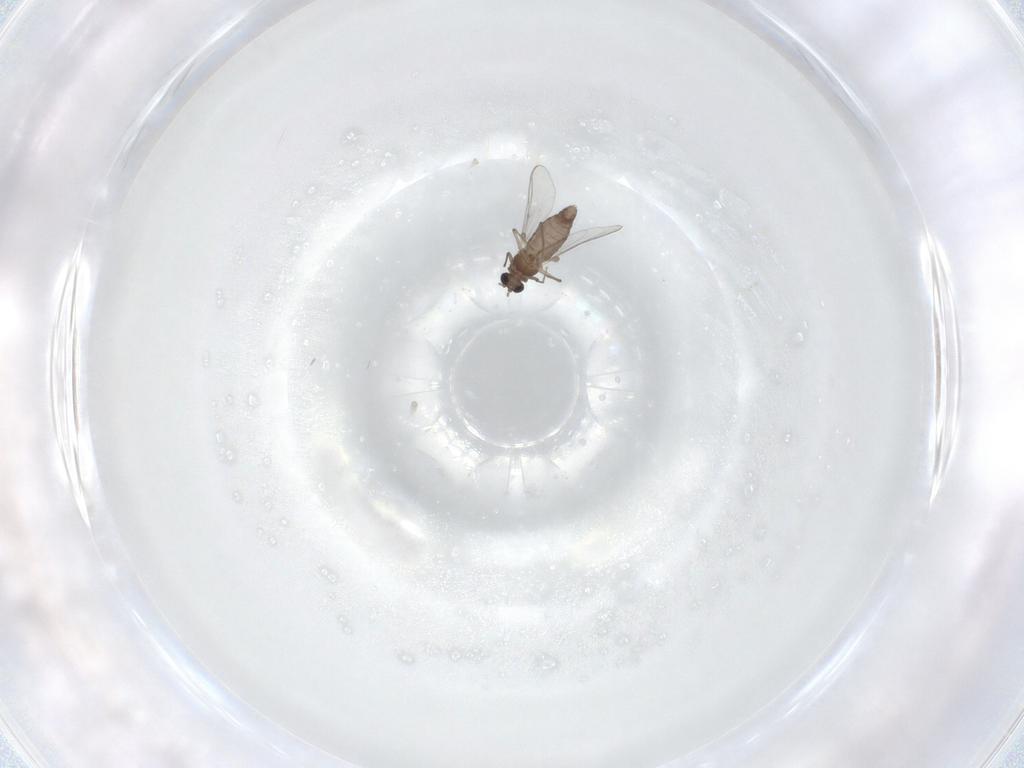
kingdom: Animalia
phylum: Arthropoda
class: Insecta
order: Diptera
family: Chironomidae
